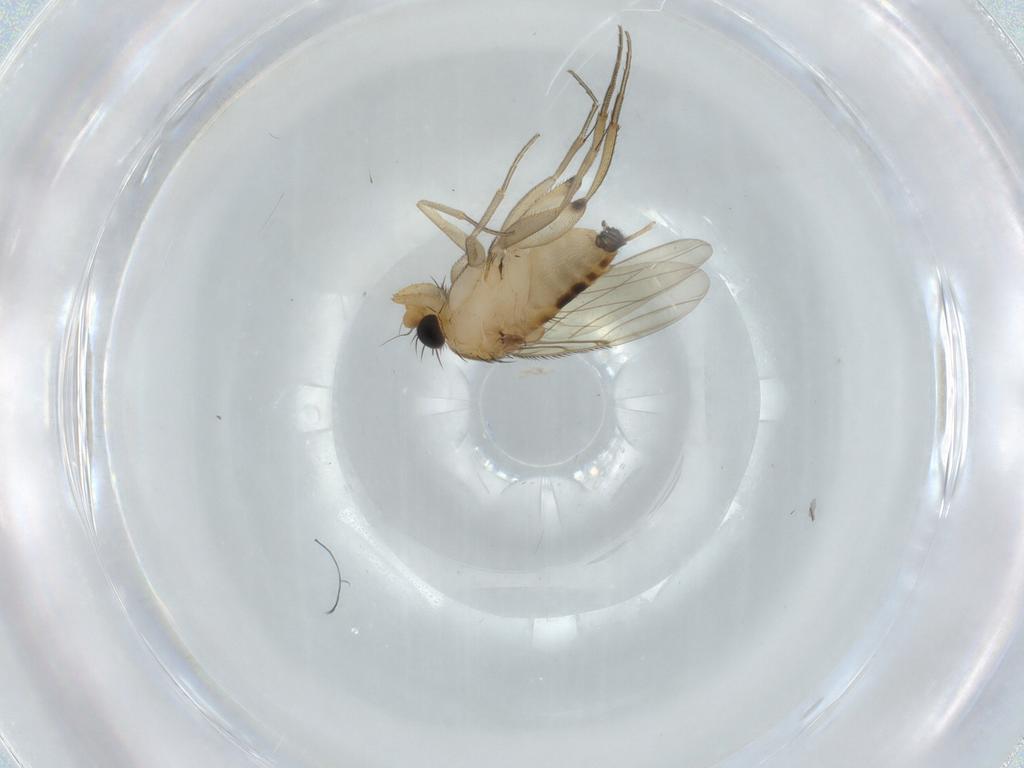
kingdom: Animalia
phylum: Arthropoda
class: Insecta
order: Diptera
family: Phoridae
